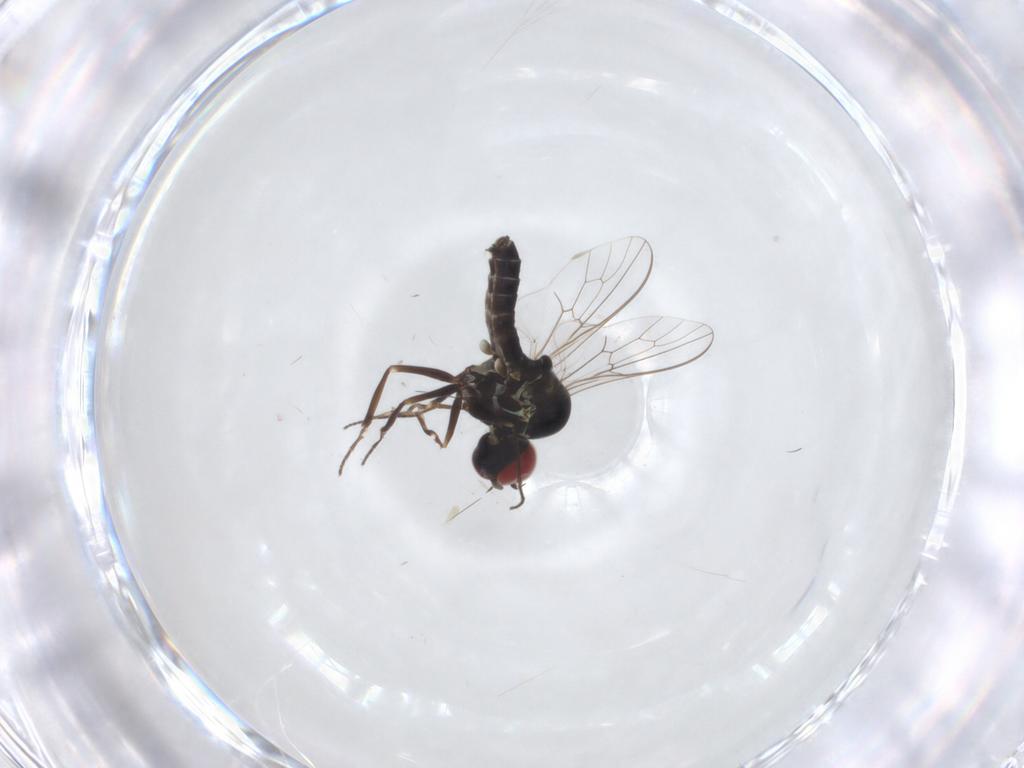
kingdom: Animalia
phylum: Arthropoda
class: Insecta
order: Diptera
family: Bombyliidae
